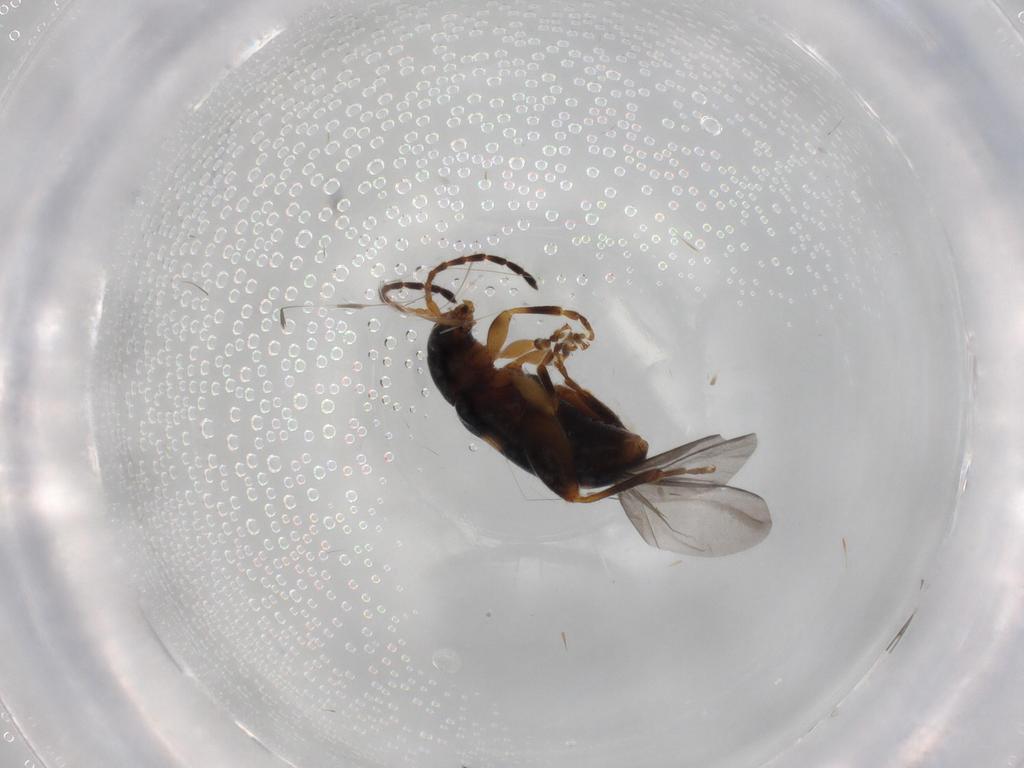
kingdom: Animalia
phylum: Arthropoda
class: Insecta
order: Coleoptera
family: Chrysomelidae
